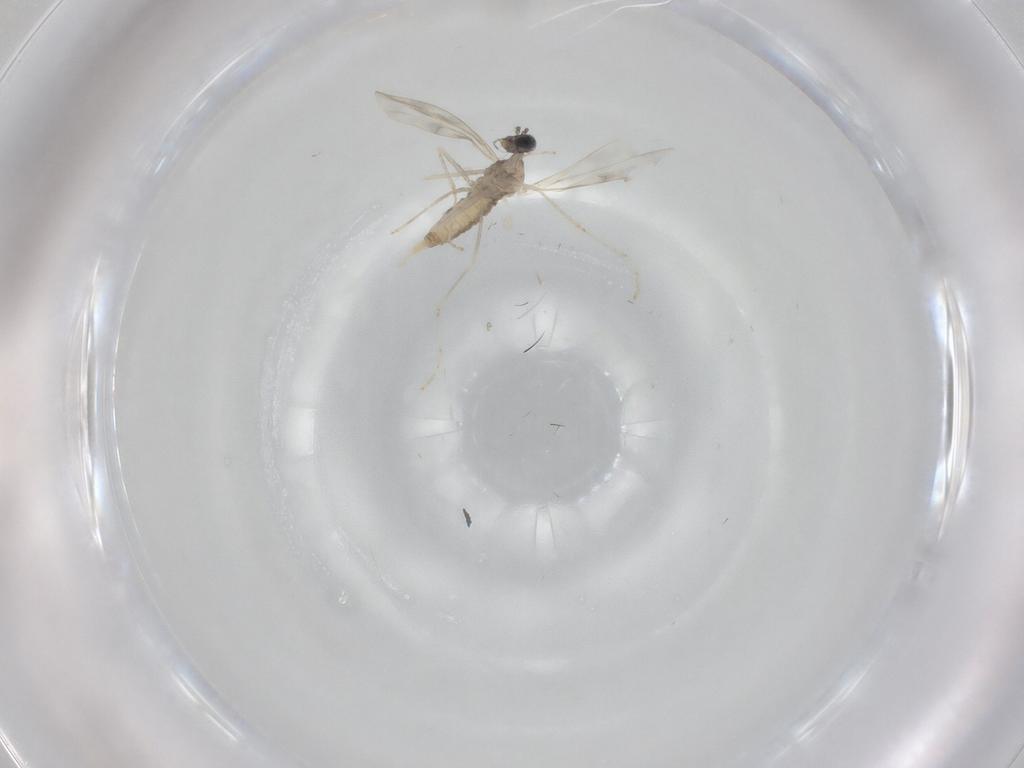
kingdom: Animalia
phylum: Arthropoda
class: Insecta
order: Diptera
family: Cecidomyiidae
